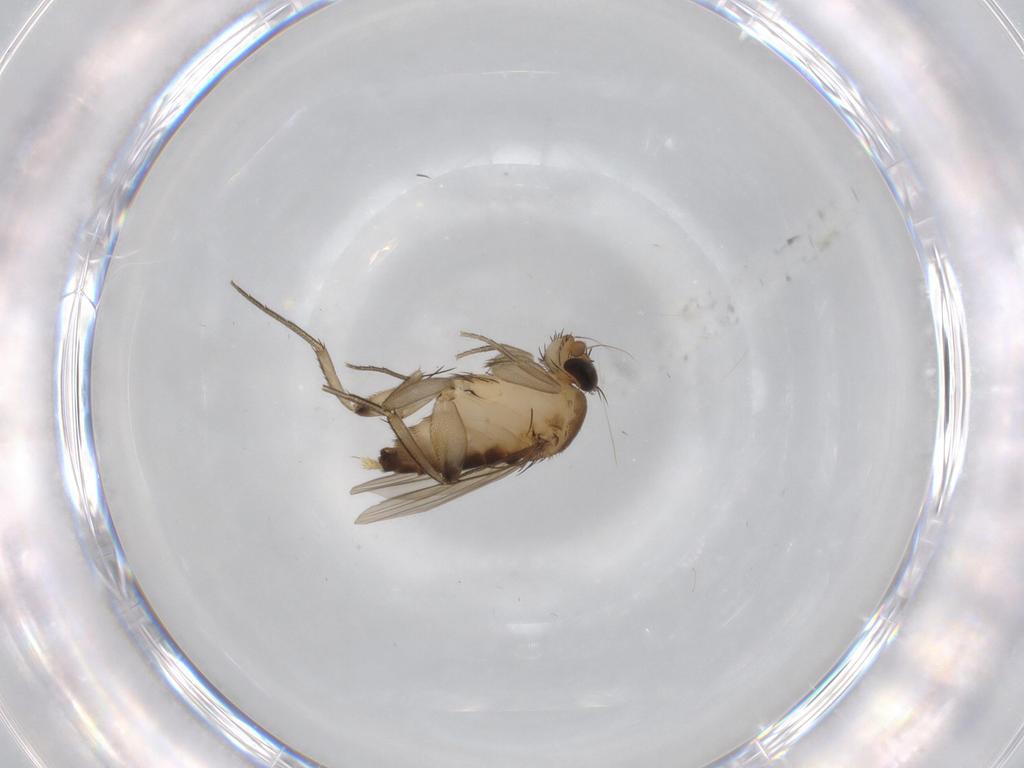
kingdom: Animalia
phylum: Arthropoda
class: Insecta
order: Diptera
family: Phoridae
